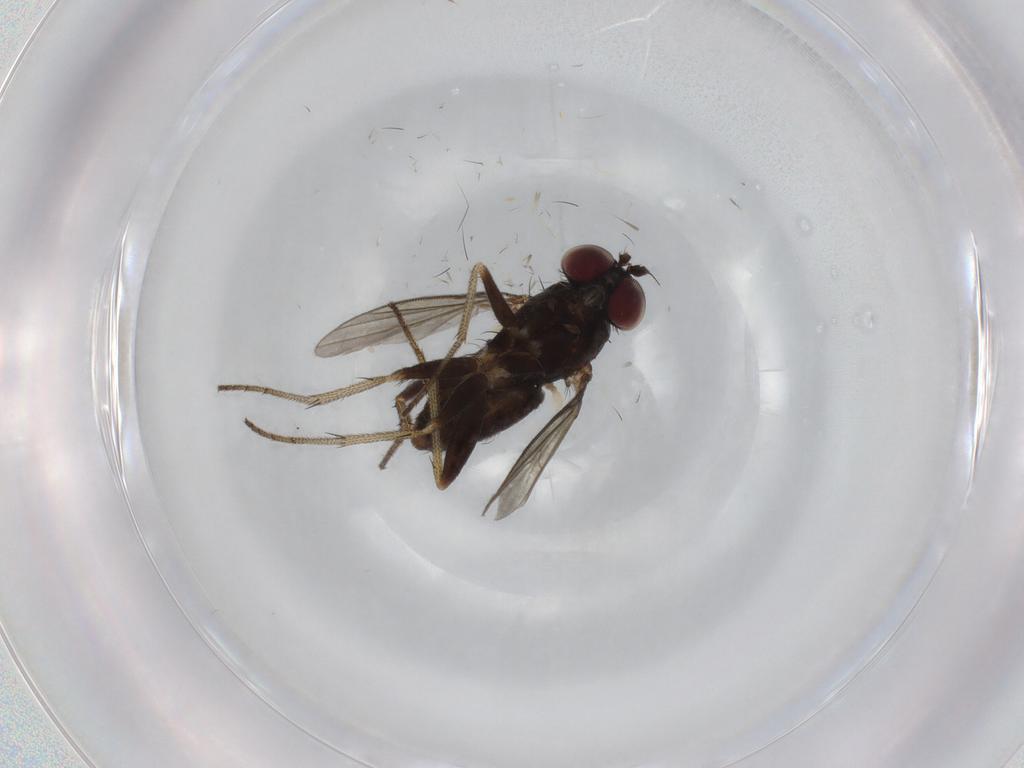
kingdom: Animalia
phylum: Arthropoda
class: Insecta
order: Diptera
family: Dolichopodidae
